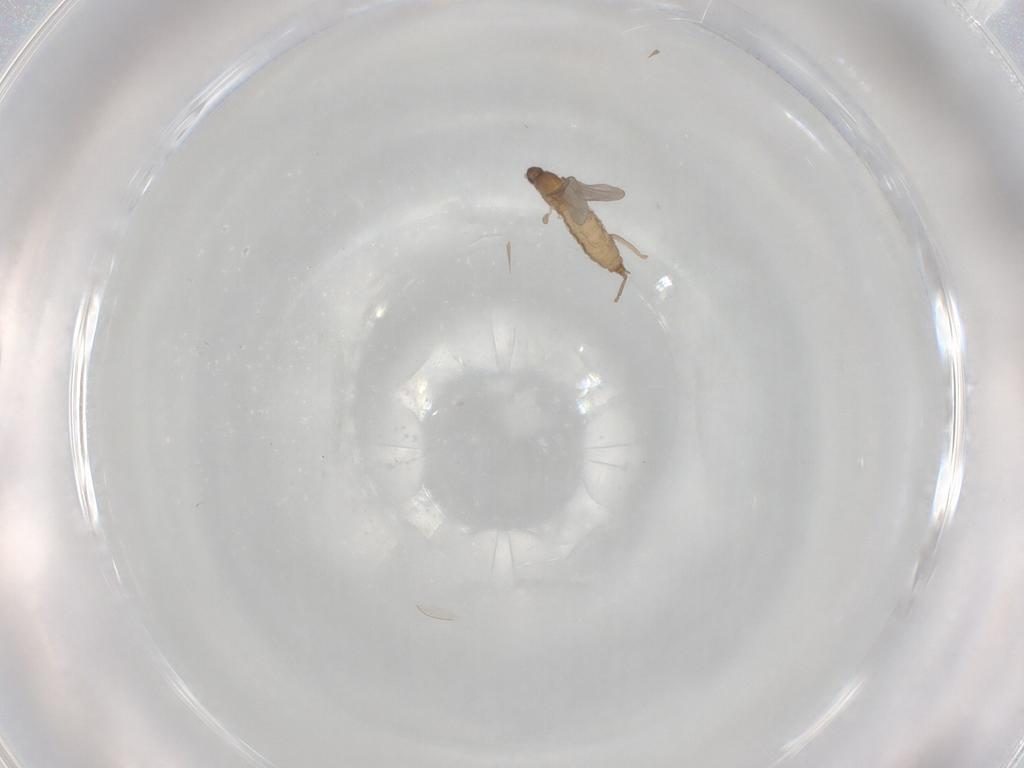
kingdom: Animalia
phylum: Arthropoda
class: Insecta
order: Diptera
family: Cecidomyiidae
